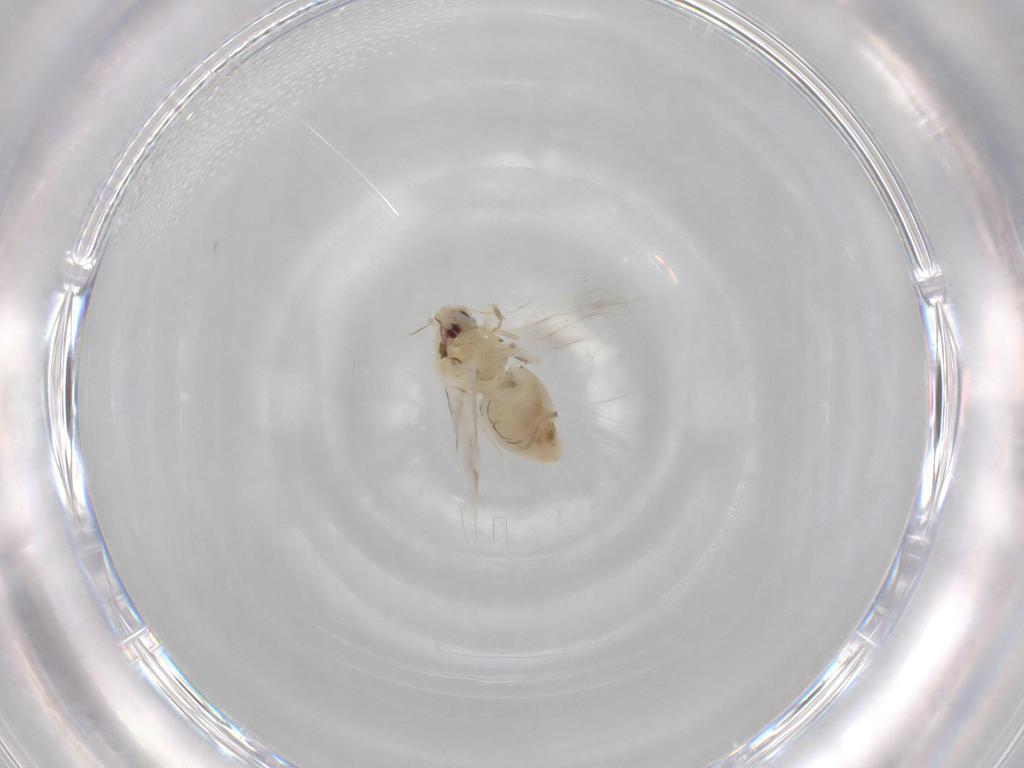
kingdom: Animalia
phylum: Arthropoda
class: Insecta
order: Hemiptera
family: Aleyrodidae
